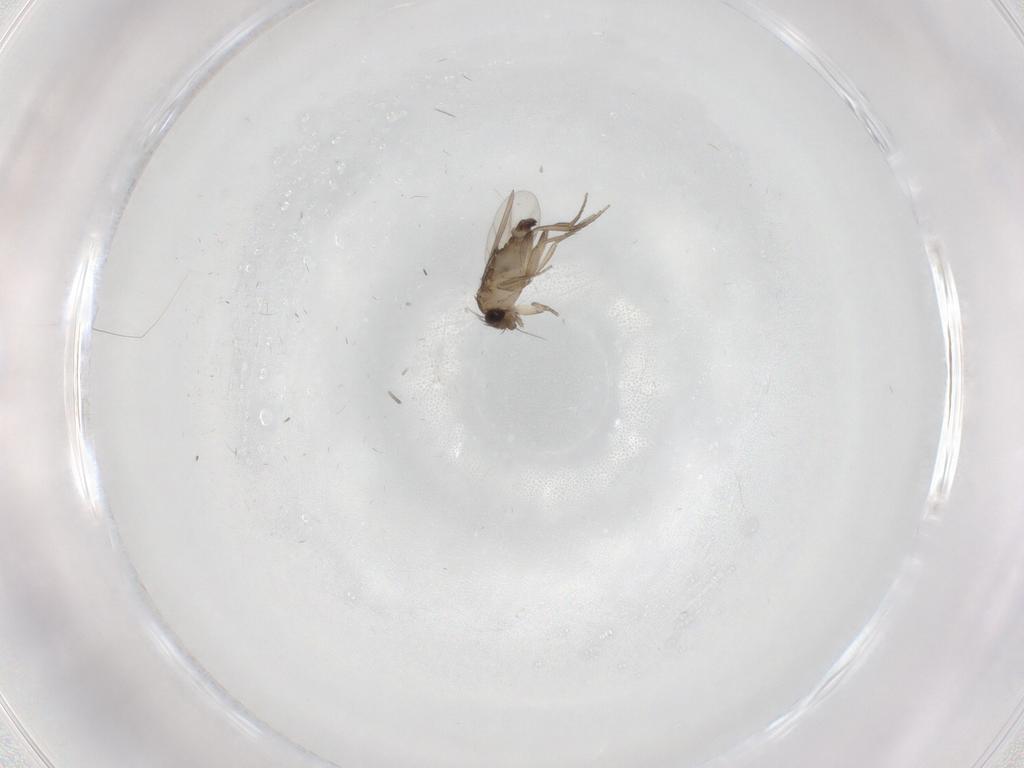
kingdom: Animalia
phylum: Arthropoda
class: Insecta
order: Diptera
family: Phoridae
